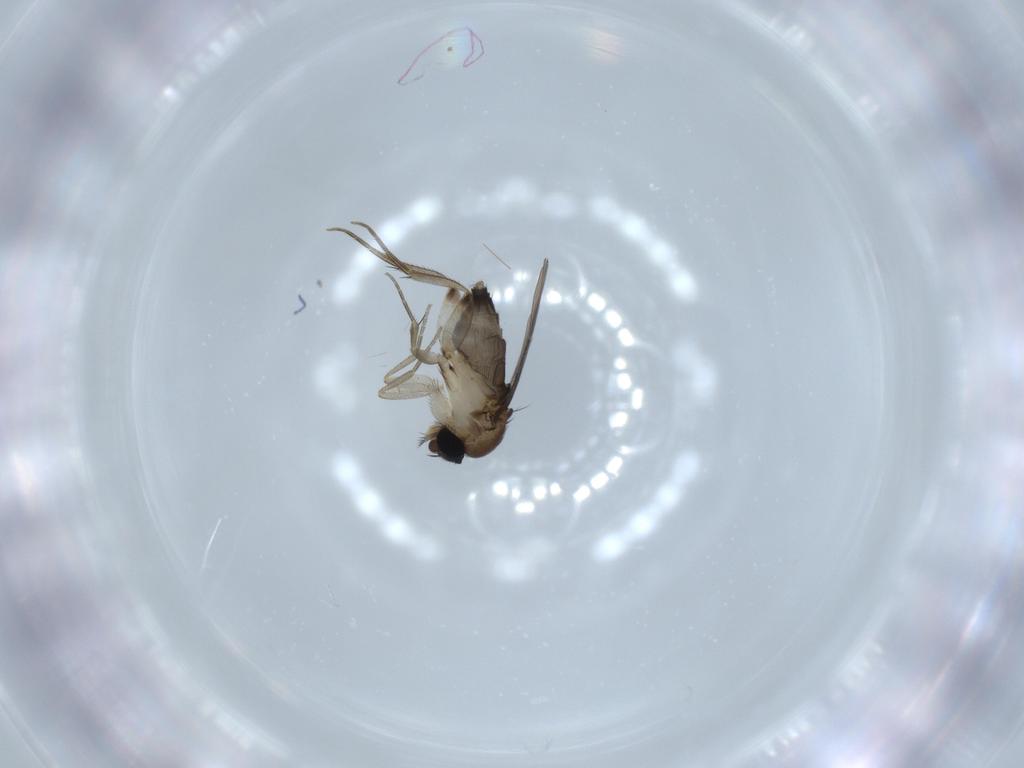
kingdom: Animalia
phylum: Arthropoda
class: Insecta
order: Diptera
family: Phoridae
